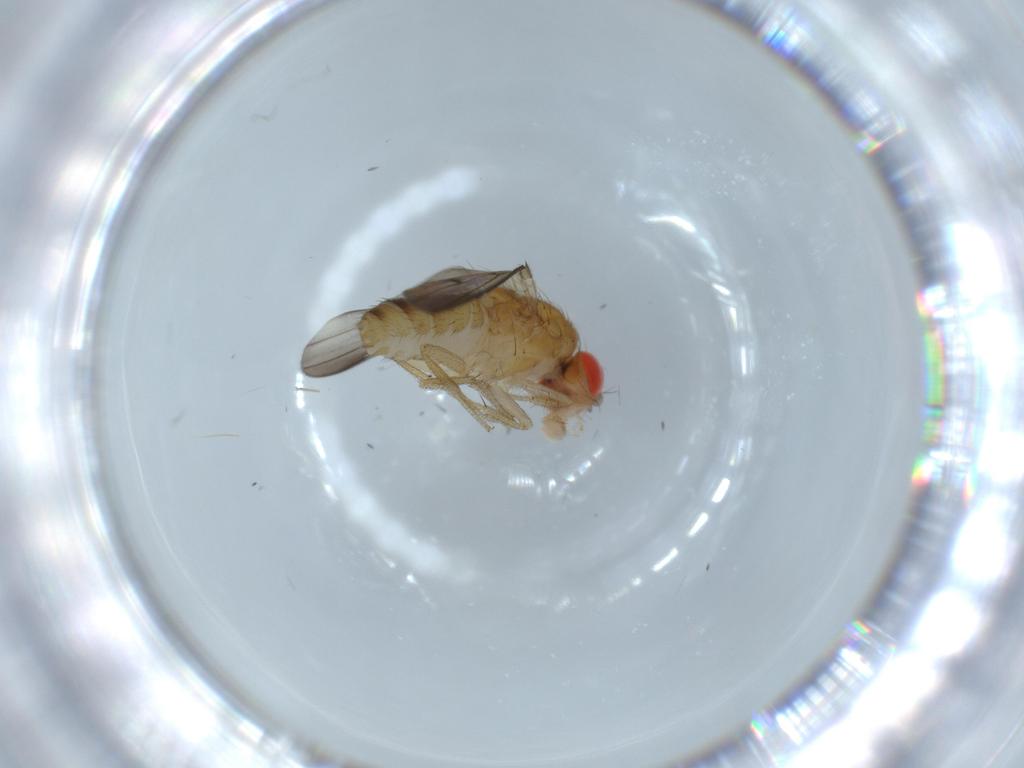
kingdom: Animalia
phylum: Arthropoda
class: Insecta
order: Diptera
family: Drosophilidae
